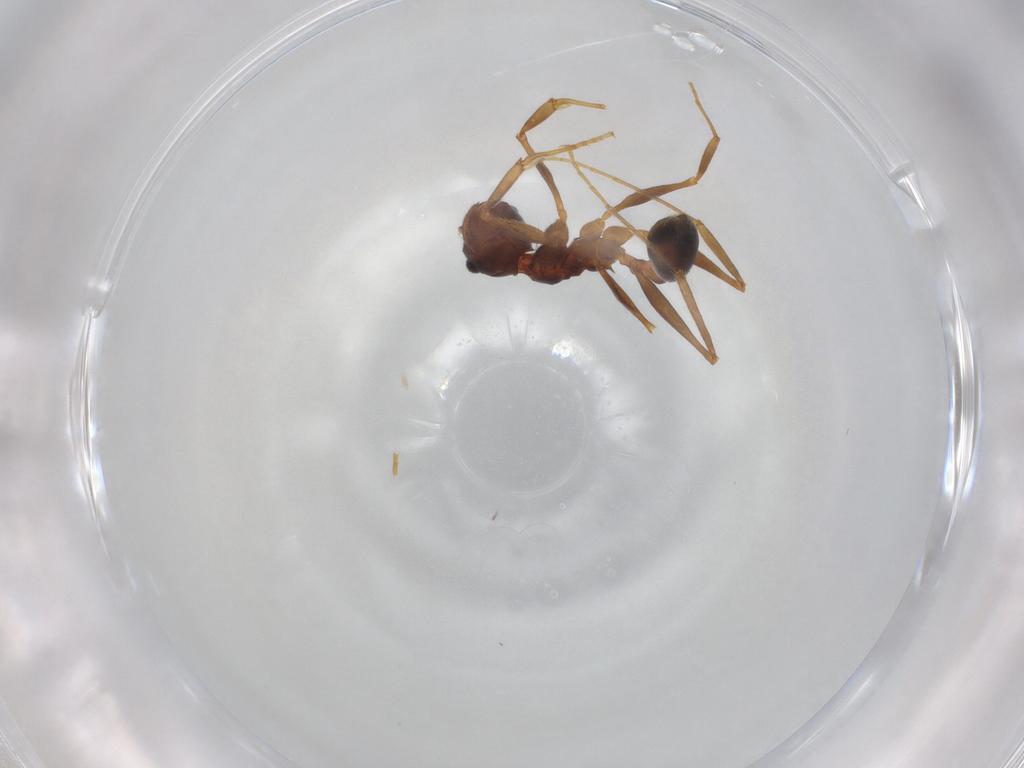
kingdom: Animalia
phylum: Arthropoda
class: Insecta
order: Hymenoptera
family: Formicidae
